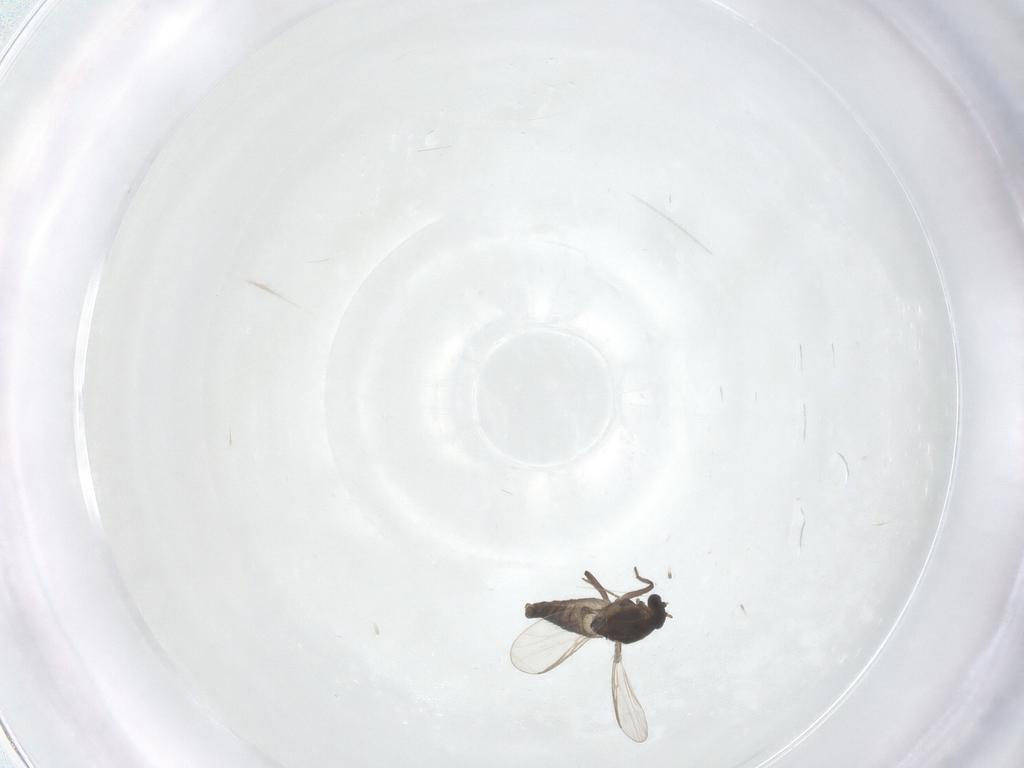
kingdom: Animalia
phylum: Arthropoda
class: Insecta
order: Diptera
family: Chironomidae
